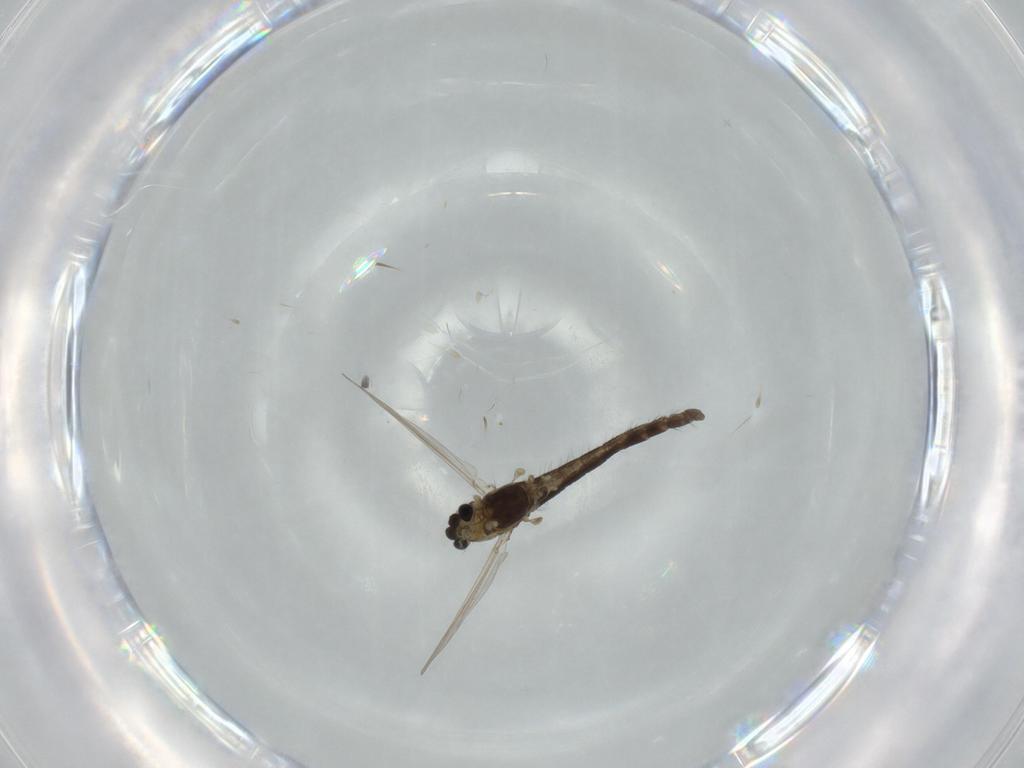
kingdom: Animalia
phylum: Arthropoda
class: Insecta
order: Diptera
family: Chironomidae
